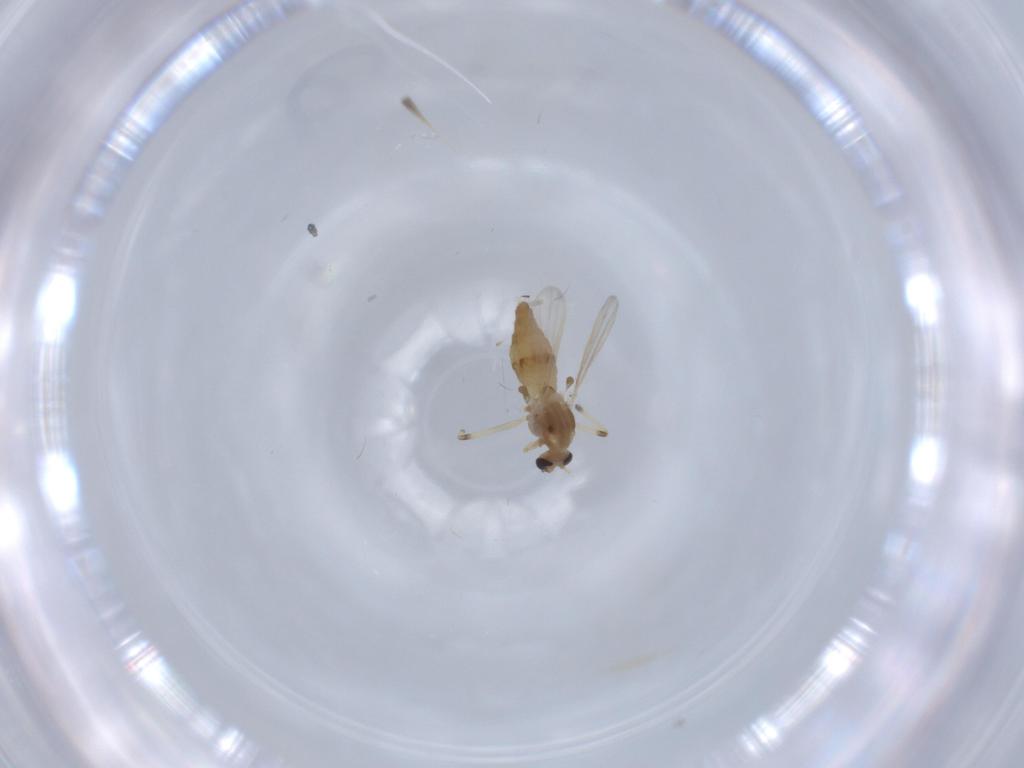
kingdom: Animalia
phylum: Arthropoda
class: Insecta
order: Diptera
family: Chironomidae
